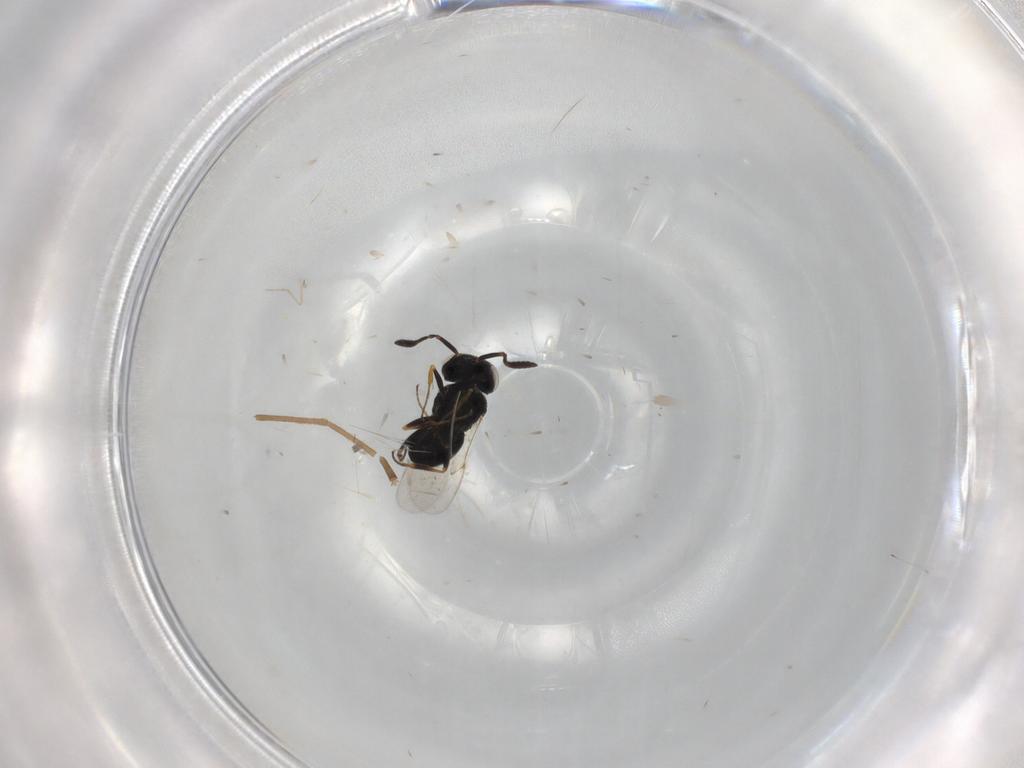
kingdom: Animalia
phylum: Arthropoda
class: Insecta
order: Hymenoptera
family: Scelionidae
